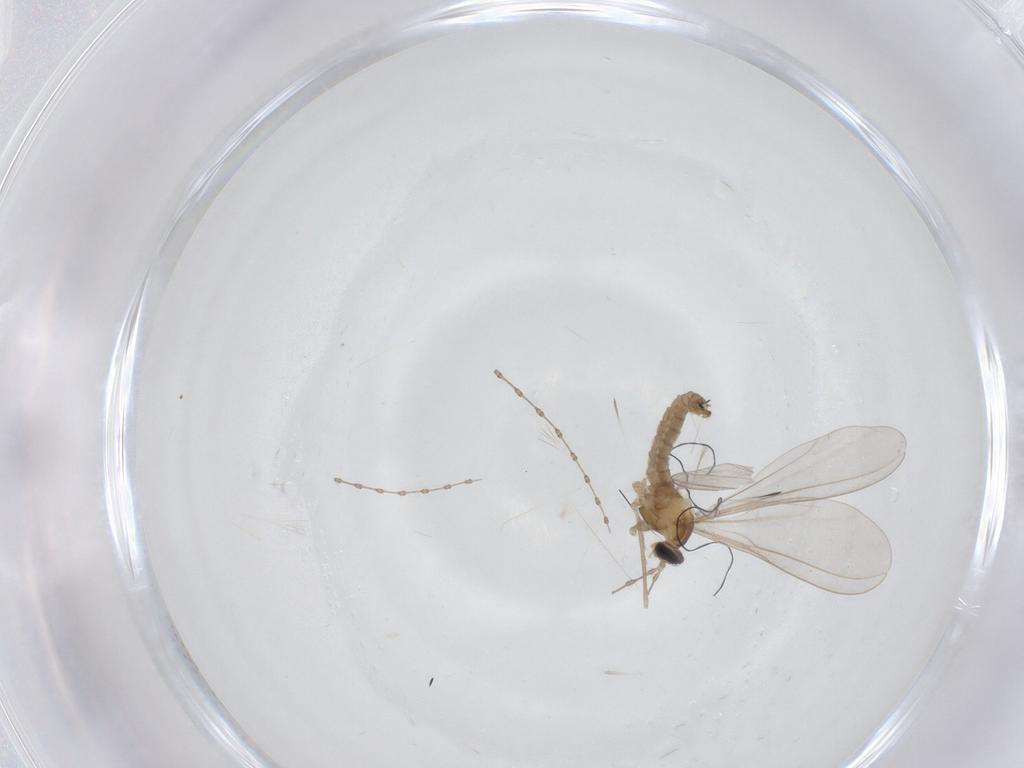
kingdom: Animalia
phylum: Arthropoda
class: Insecta
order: Diptera
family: Cecidomyiidae
